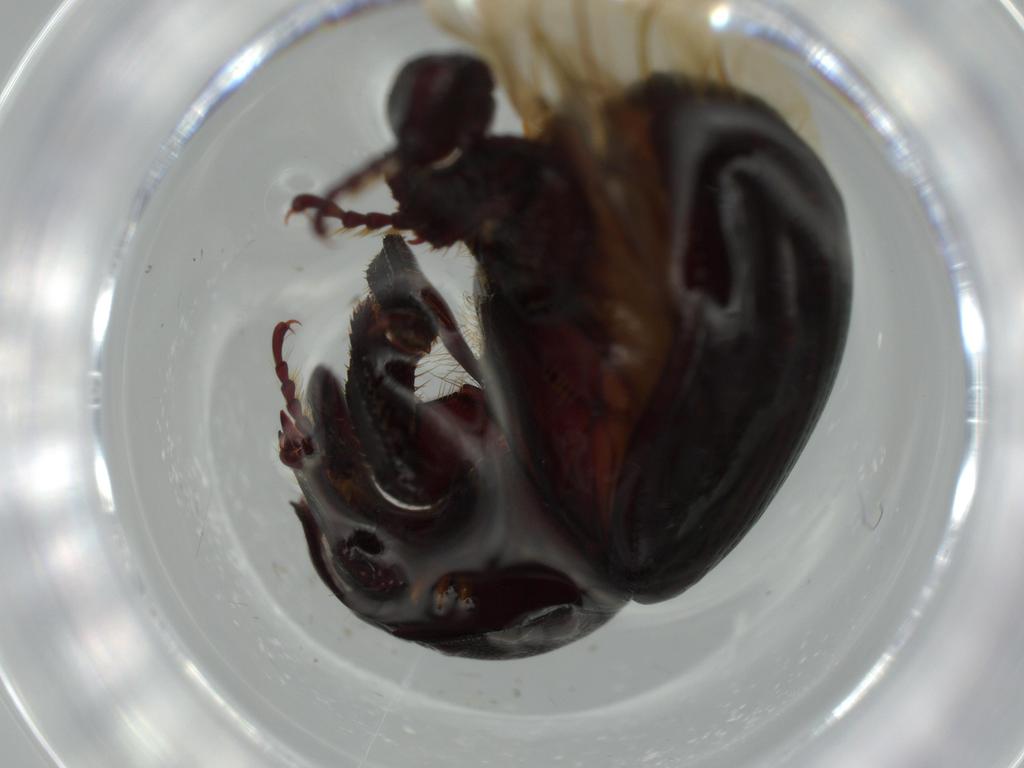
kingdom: Animalia
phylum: Arthropoda
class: Insecta
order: Coleoptera
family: Hybosoridae
